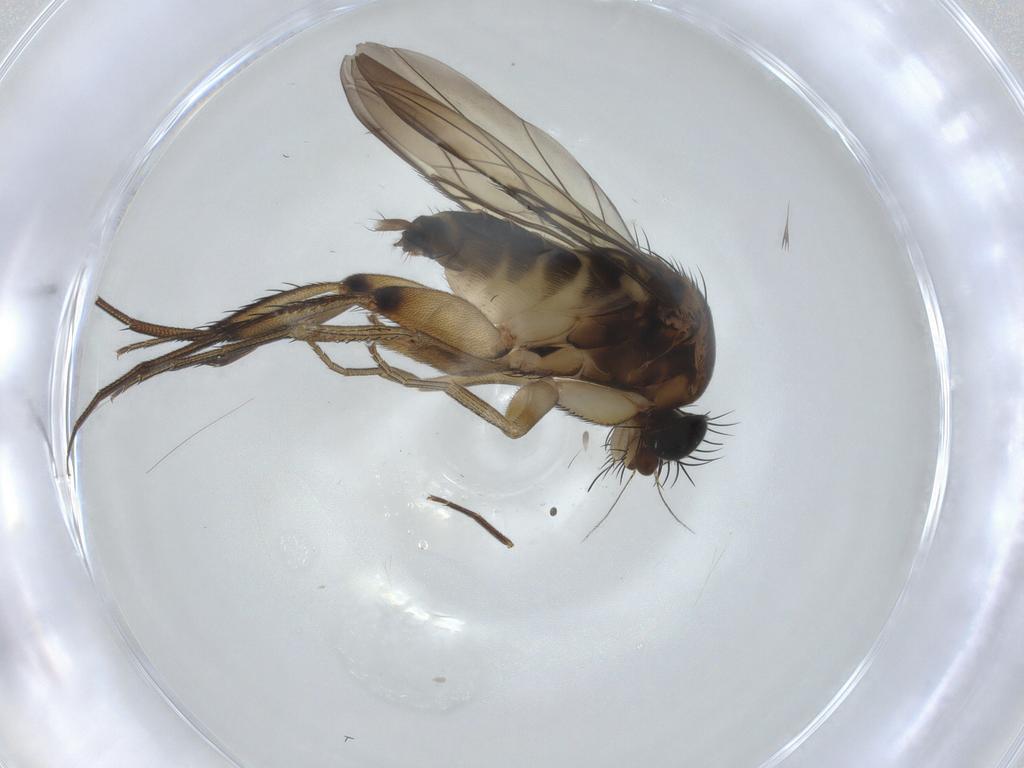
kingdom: Animalia
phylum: Arthropoda
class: Insecta
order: Diptera
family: Phoridae
